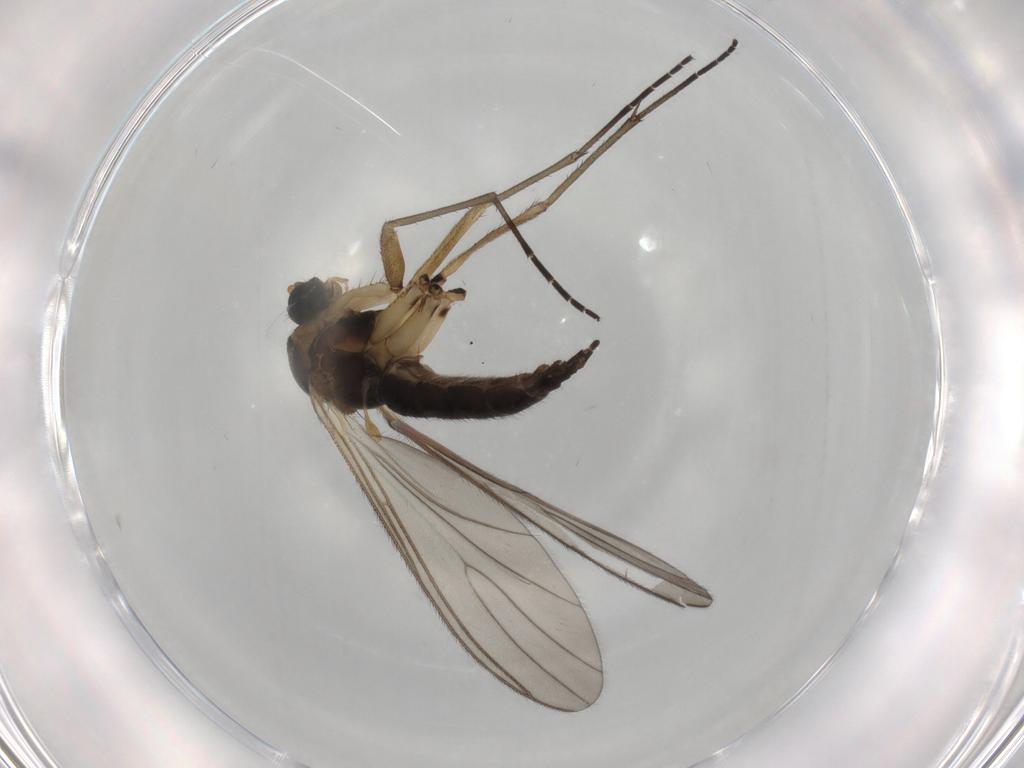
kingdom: Animalia
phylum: Arthropoda
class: Insecta
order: Diptera
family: Sciaridae
